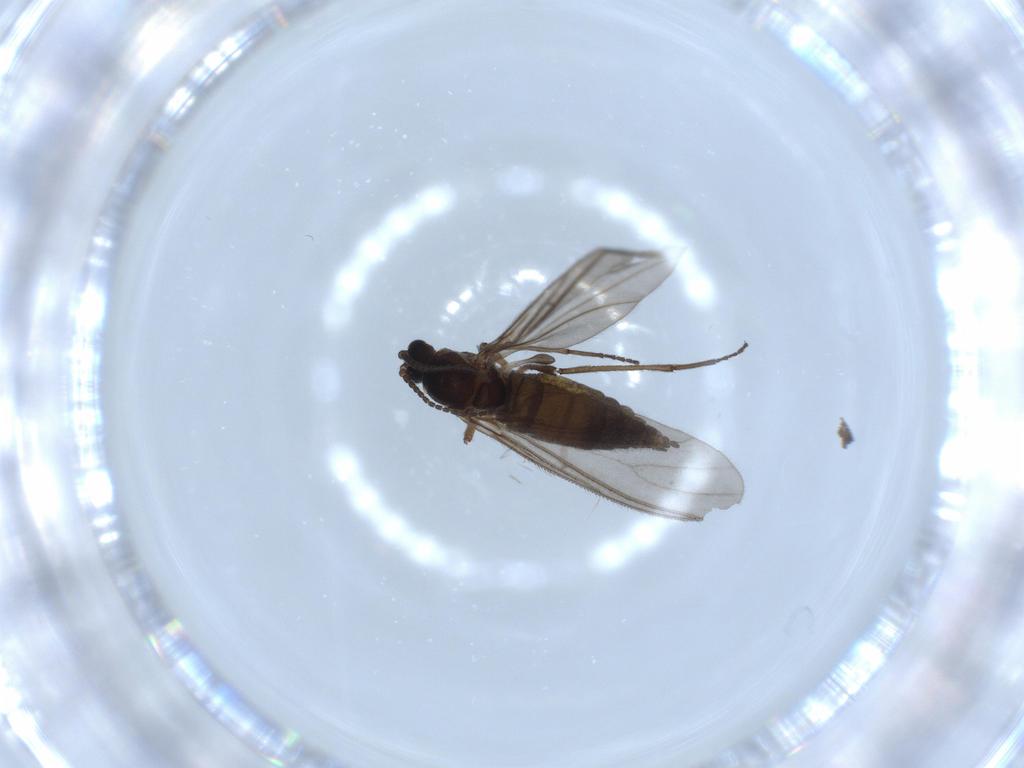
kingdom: Animalia
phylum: Arthropoda
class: Insecta
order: Diptera
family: Sciaridae
